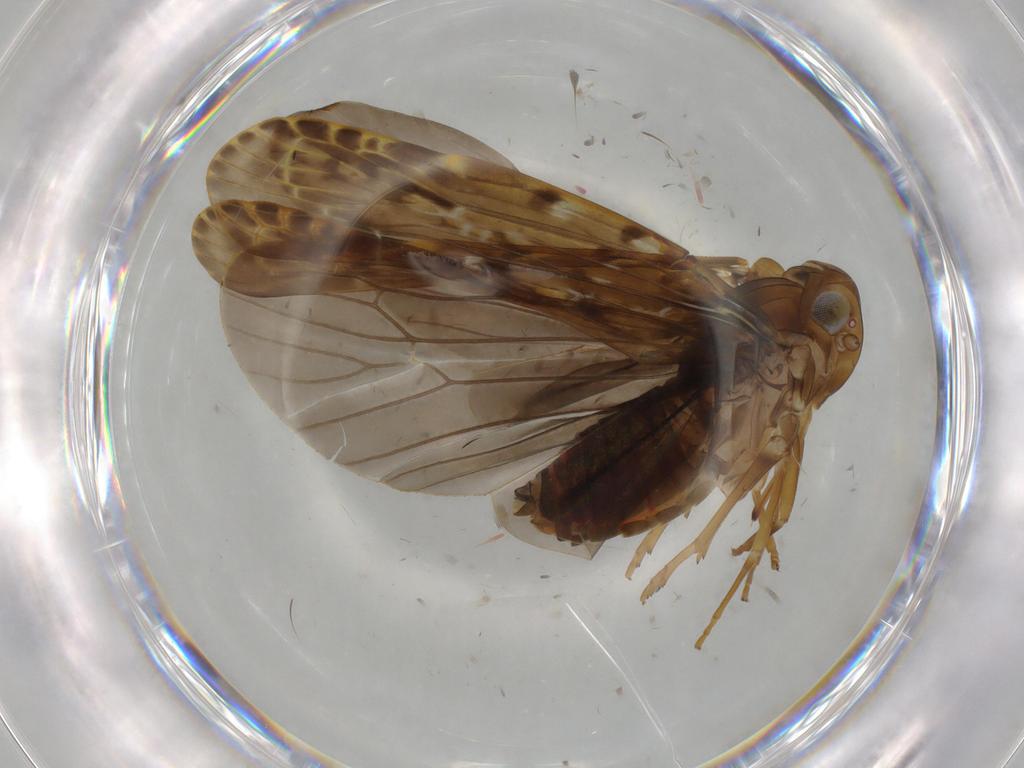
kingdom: Animalia
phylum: Arthropoda
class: Insecta
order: Hemiptera
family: Achilidae
